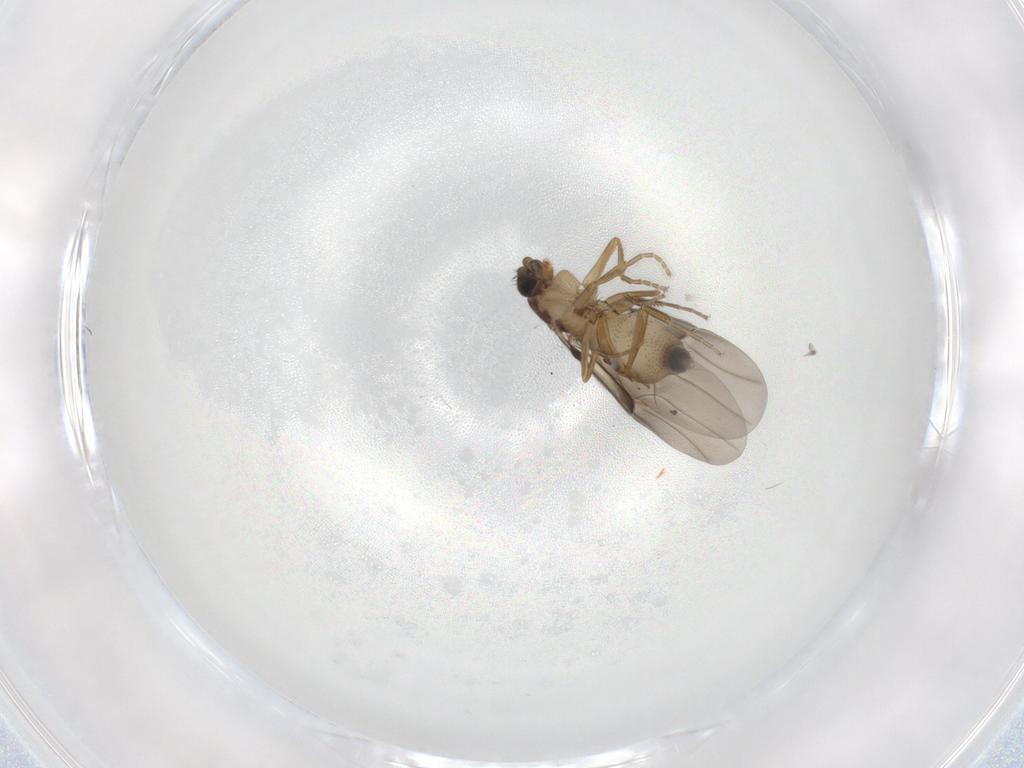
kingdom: Animalia
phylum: Arthropoda
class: Insecta
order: Diptera
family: Phoridae
